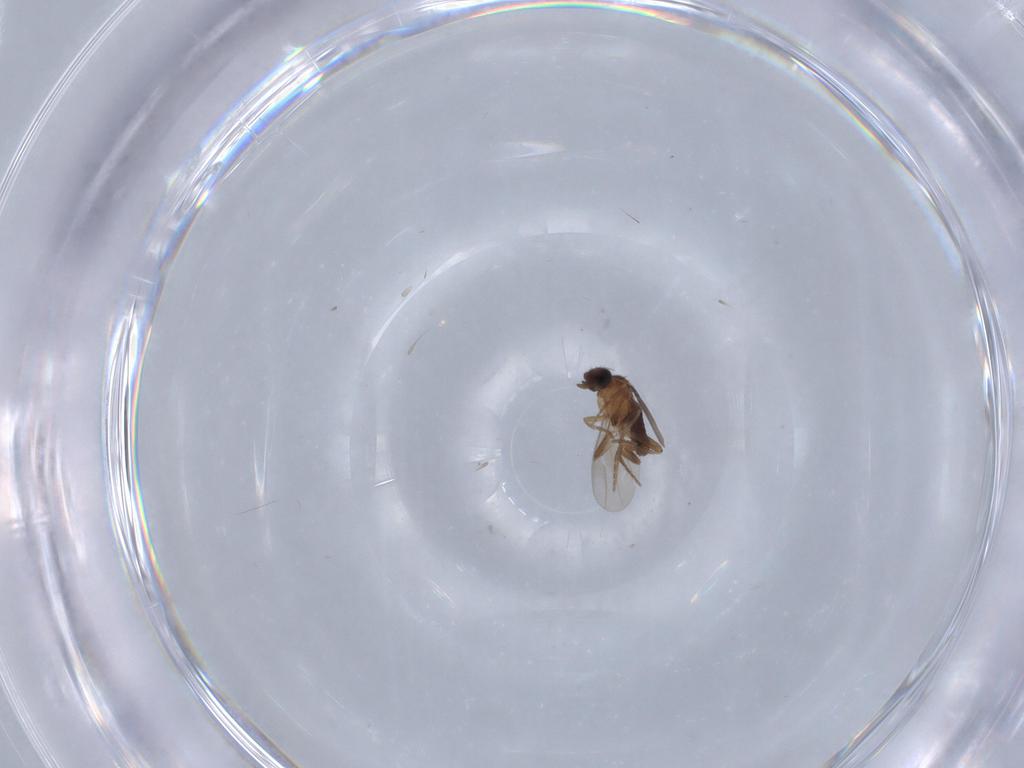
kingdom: Animalia
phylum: Arthropoda
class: Insecta
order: Diptera
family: Ceratopogonidae
